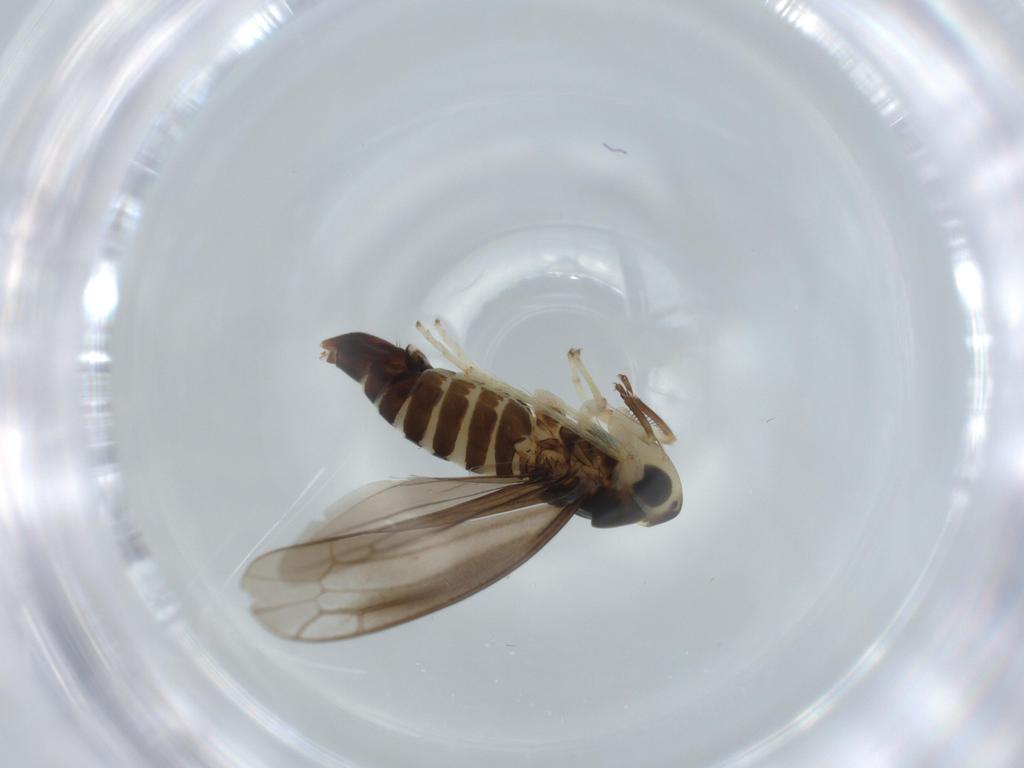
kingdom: Animalia
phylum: Arthropoda
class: Insecta
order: Hemiptera
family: Cicadellidae
